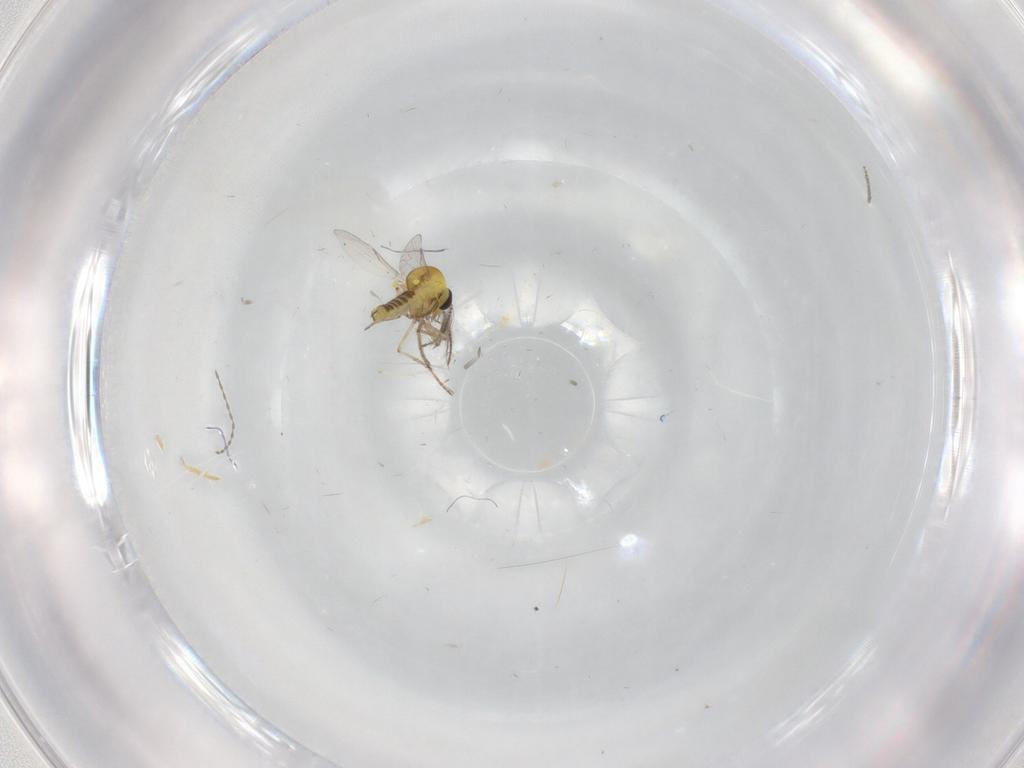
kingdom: Animalia
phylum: Arthropoda
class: Insecta
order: Diptera
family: Cecidomyiidae
